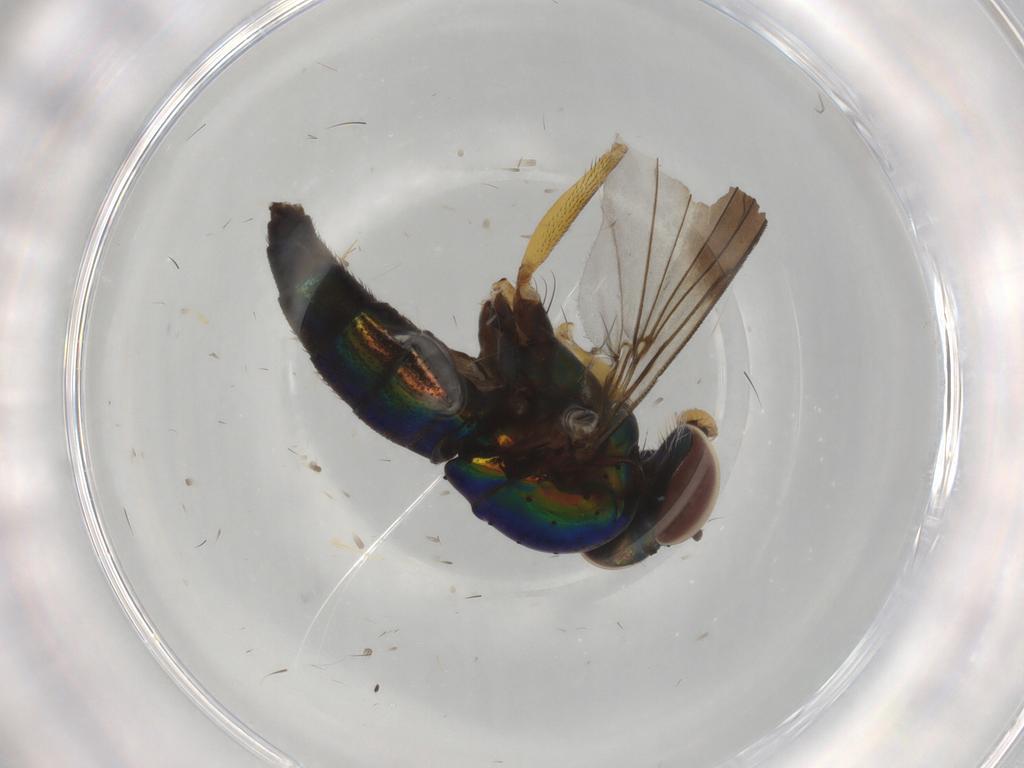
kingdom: Animalia
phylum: Arthropoda
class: Insecta
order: Diptera
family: Chloropidae
